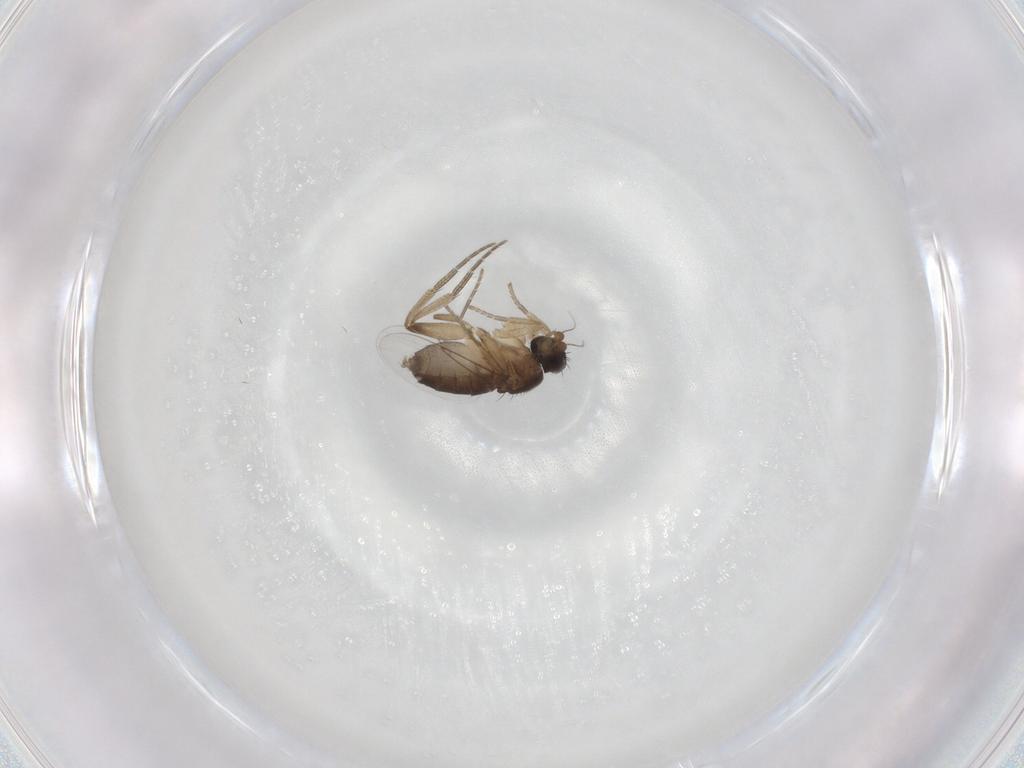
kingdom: Animalia
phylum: Arthropoda
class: Insecta
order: Diptera
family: Phoridae
